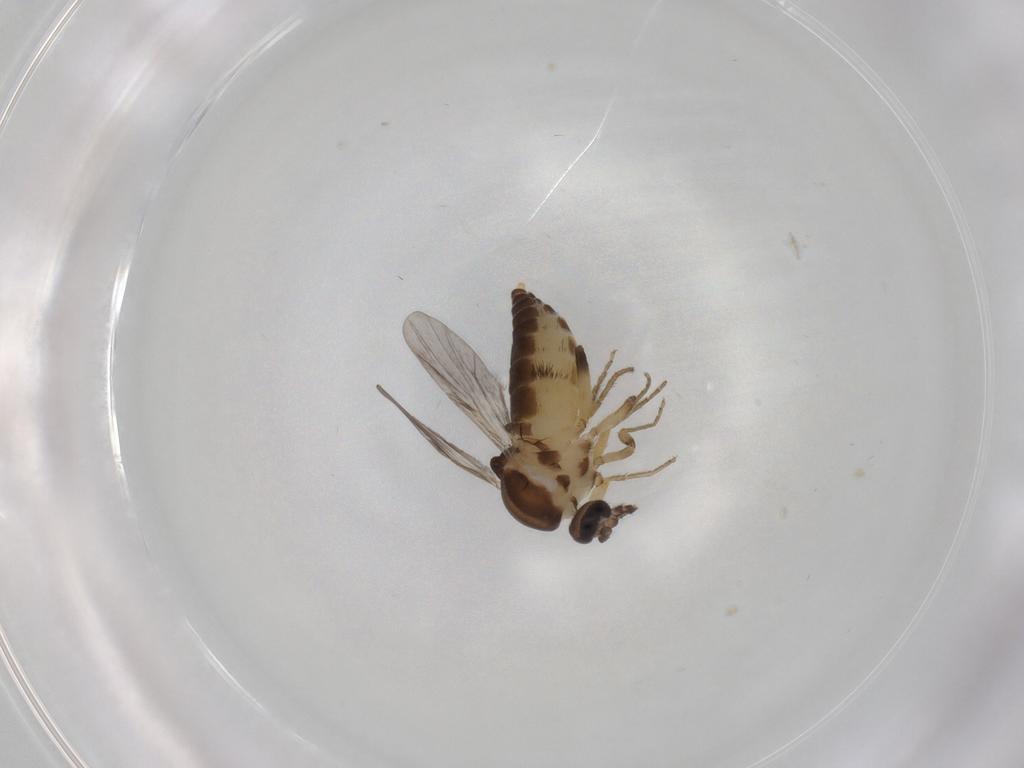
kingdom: Animalia
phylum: Arthropoda
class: Insecta
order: Diptera
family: Ceratopogonidae
